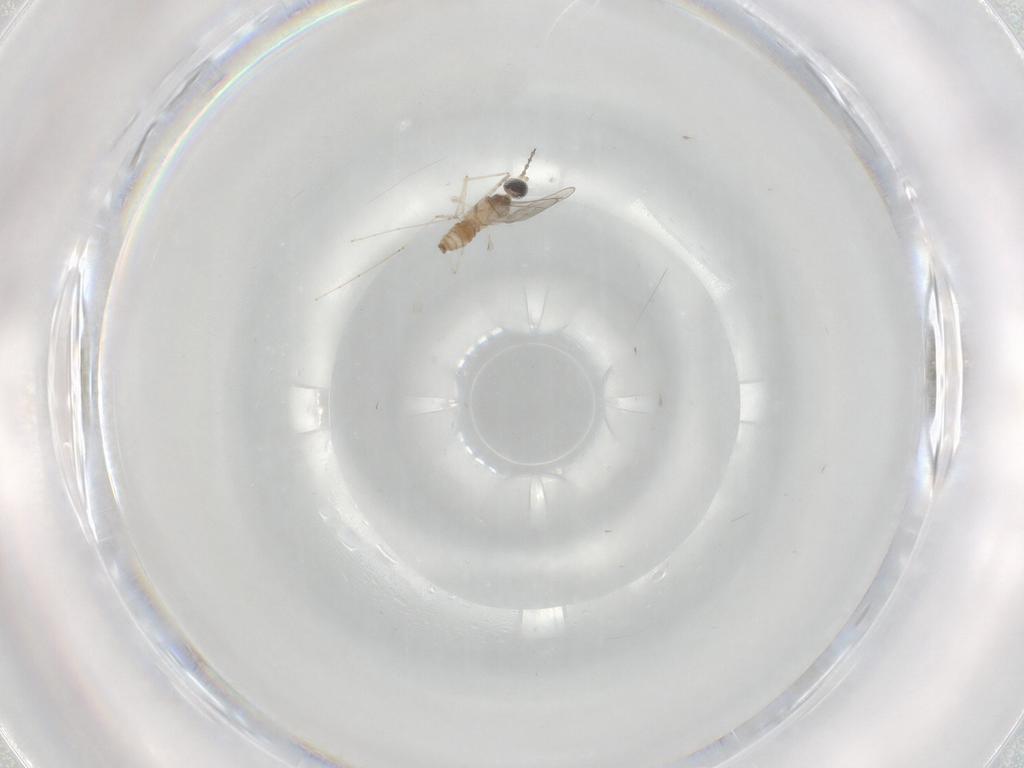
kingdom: Animalia
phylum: Arthropoda
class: Insecta
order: Diptera
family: Cecidomyiidae
